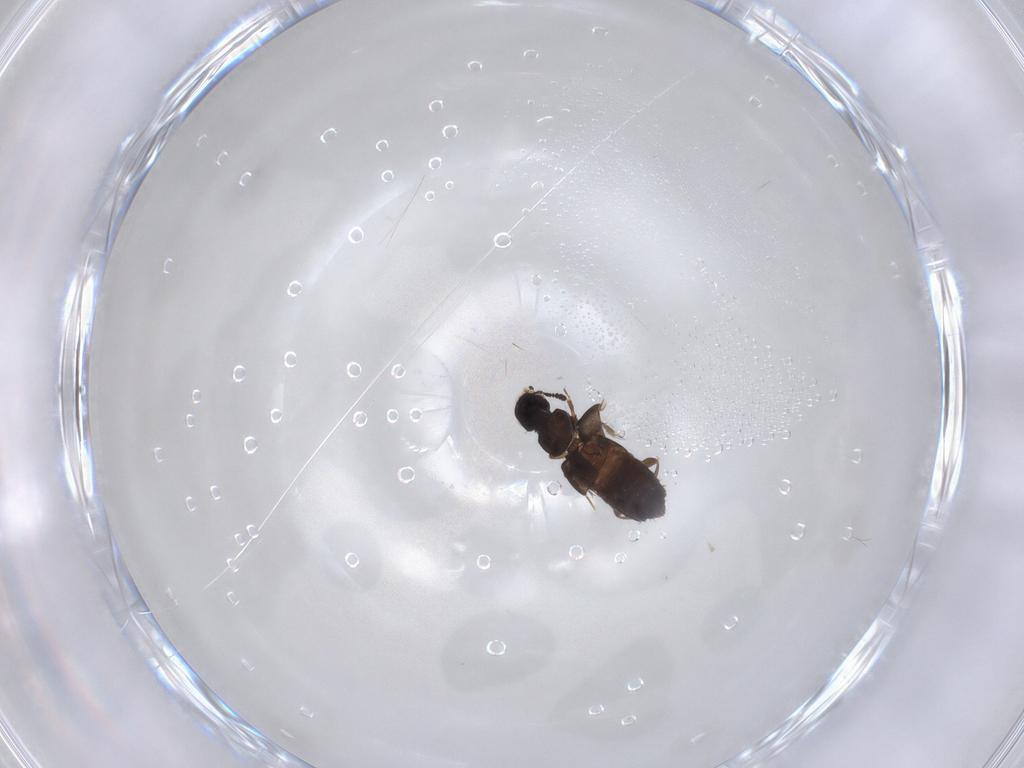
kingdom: Animalia
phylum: Arthropoda
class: Insecta
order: Coleoptera
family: Staphylinidae
